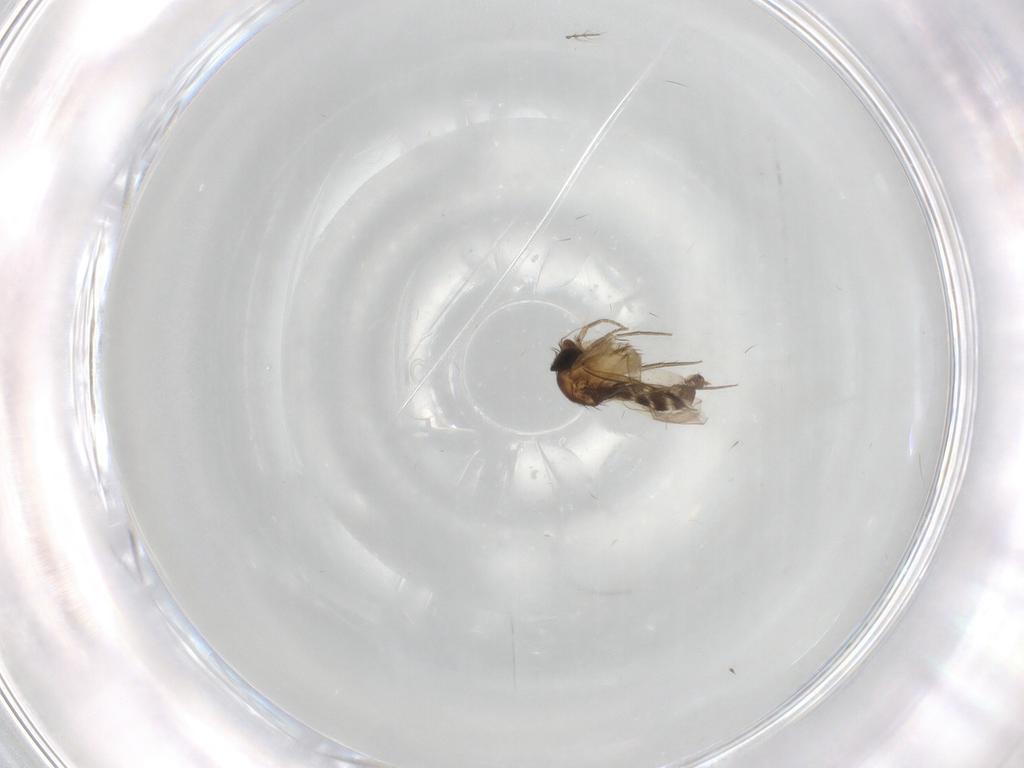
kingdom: Animalia
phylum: Arthropoda
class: Insecta
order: Diptera
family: Phoridae
